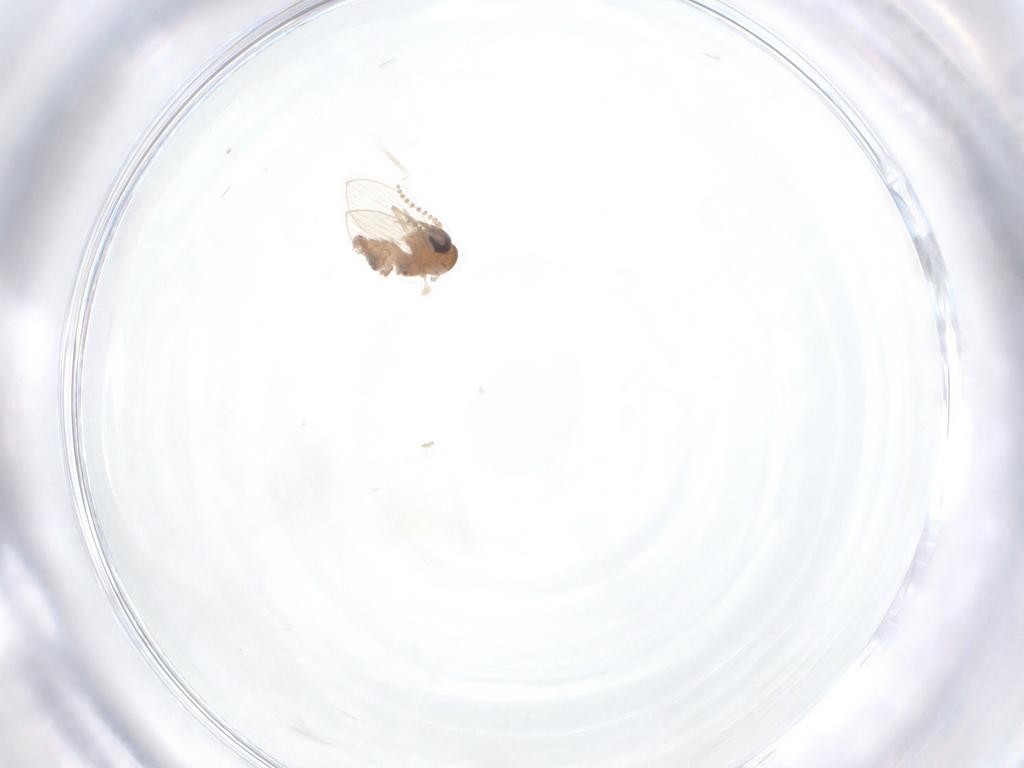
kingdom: Animalia
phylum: Arthropoda
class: Insecta
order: Diptera
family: Psychodidae
